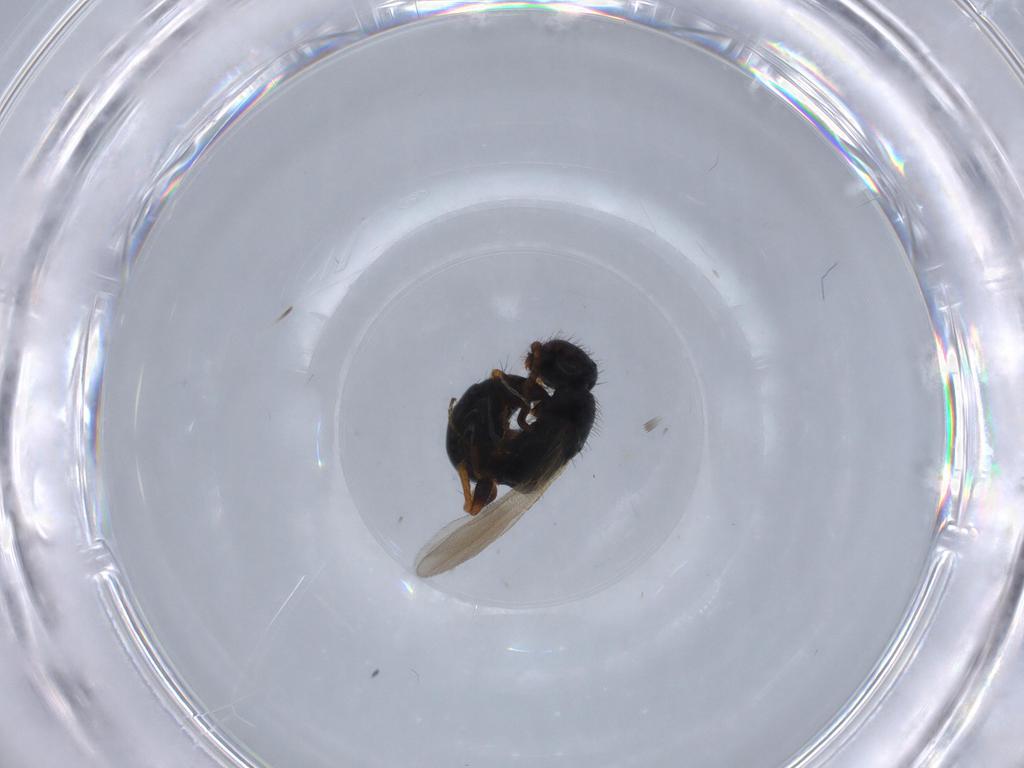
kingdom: Animalia
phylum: Arthropoda
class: Insecta
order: Hymenoptera
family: Bethylidae
